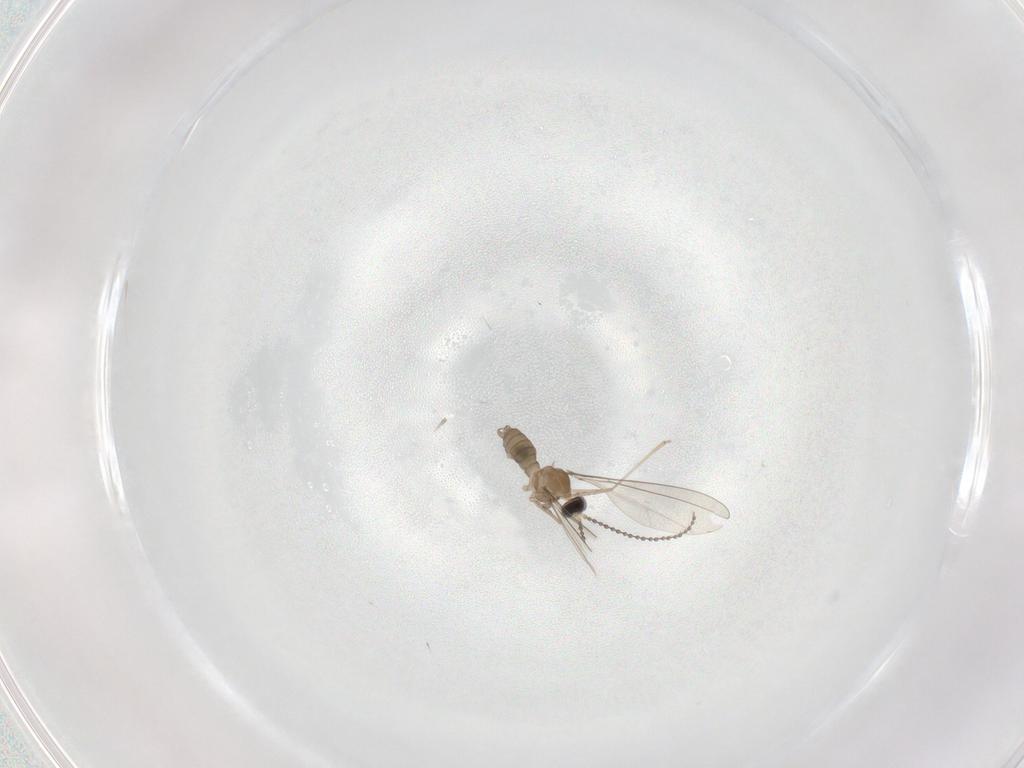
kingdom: Animalia
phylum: Arthropoda
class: Insecta
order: Diptera
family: Cecidomyiidae
